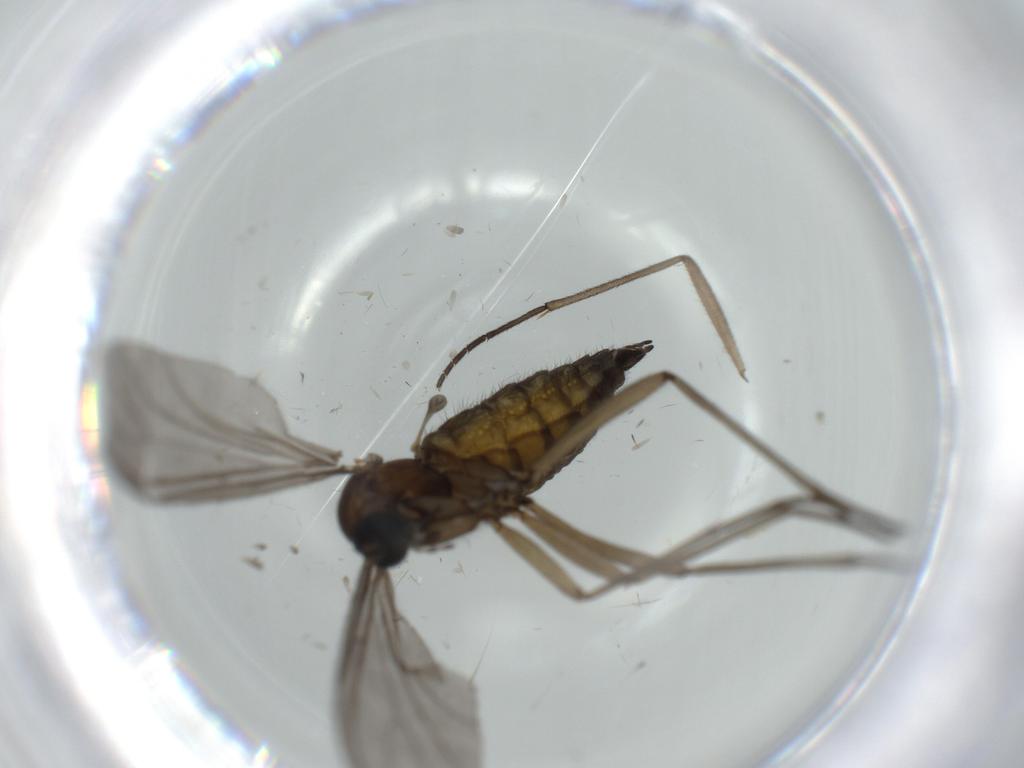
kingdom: Animalia
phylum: Arthropoda
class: Insecta
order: Diptera
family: Sciaridae
